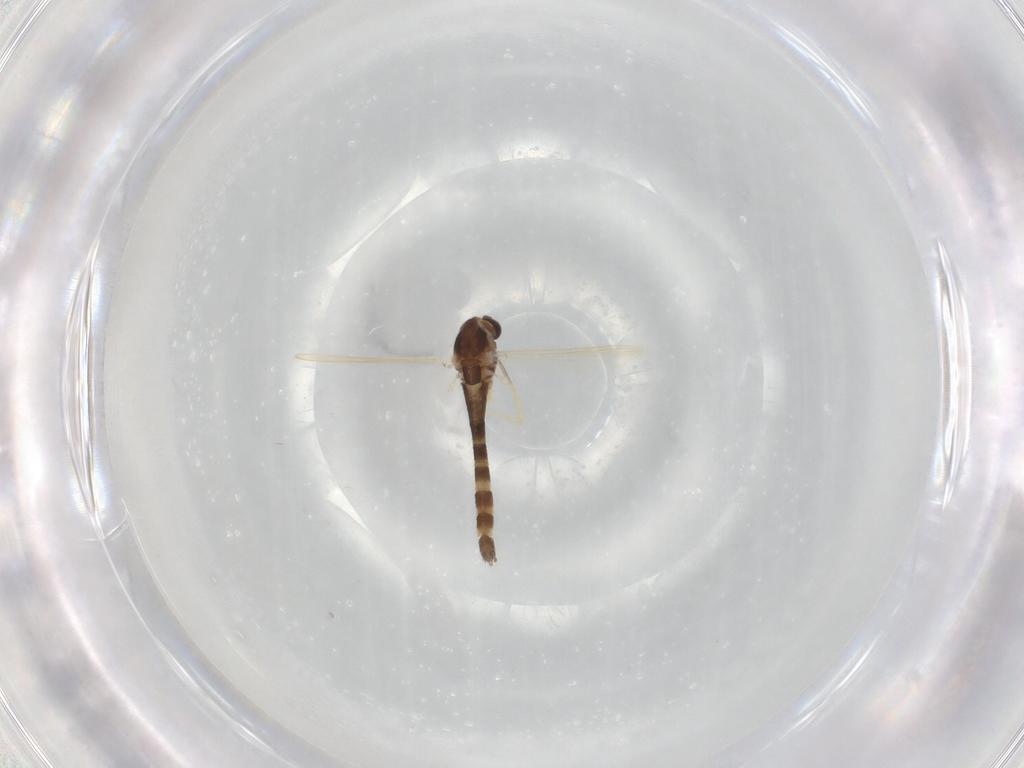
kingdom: Animalia
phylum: Arthropoda
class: Insecta
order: Diptera
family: Chironomidae
